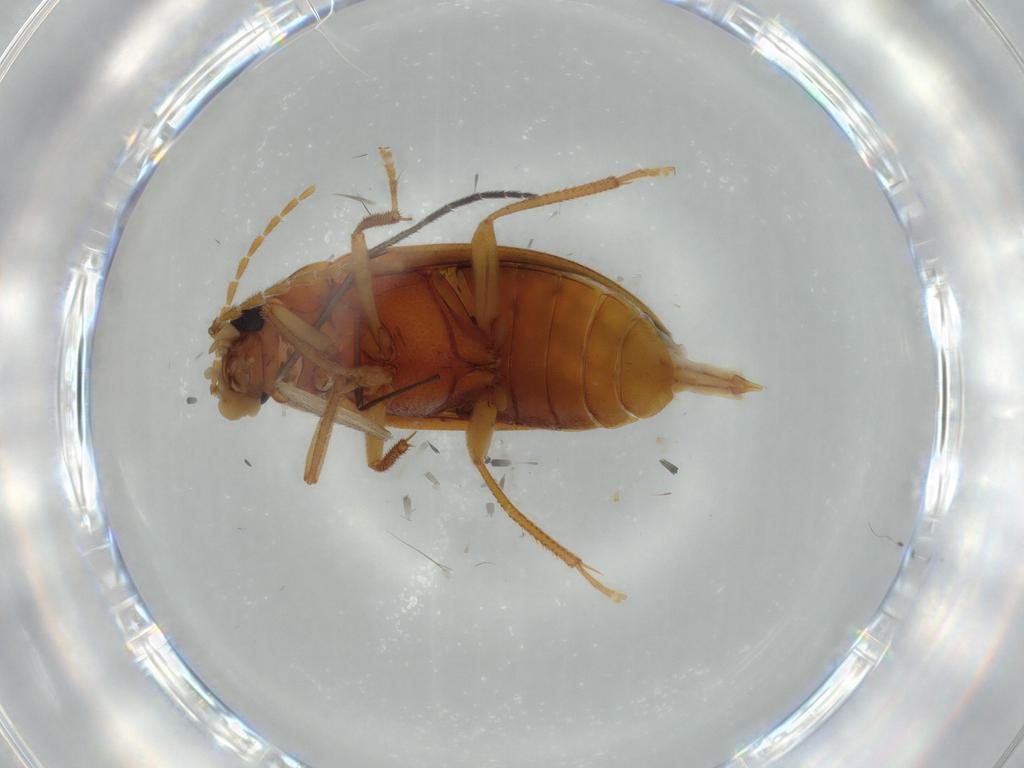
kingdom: Animalia
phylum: Arthropoda
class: Insecta
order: Coleoptera
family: Ptilodactylidae
